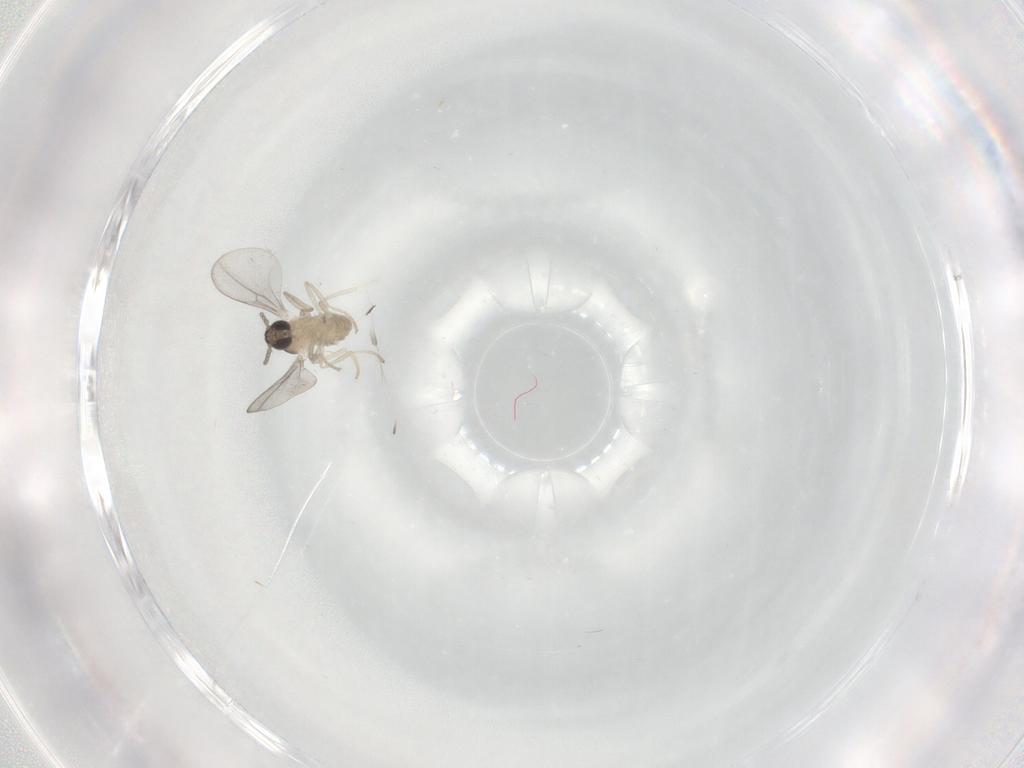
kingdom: Animalia
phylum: Arthropoda
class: Insecta
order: Diptera
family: Cecidomyiidae
